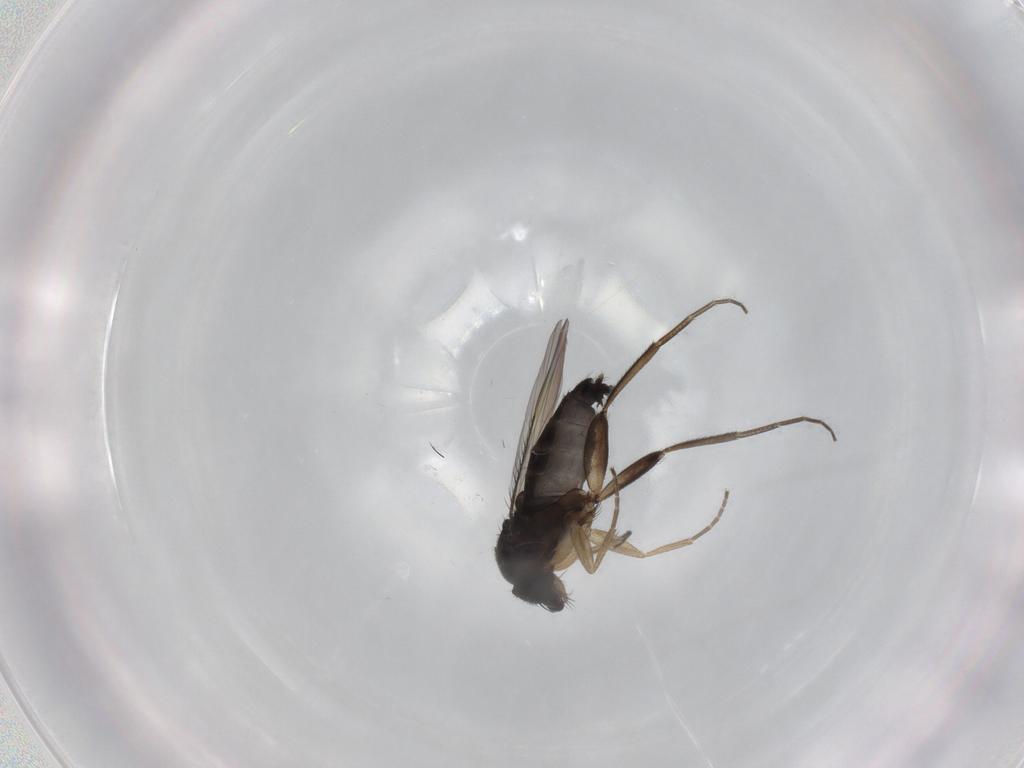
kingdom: Animalia
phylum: Arthropoda
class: Insecta
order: Diptera
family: Phoridae
